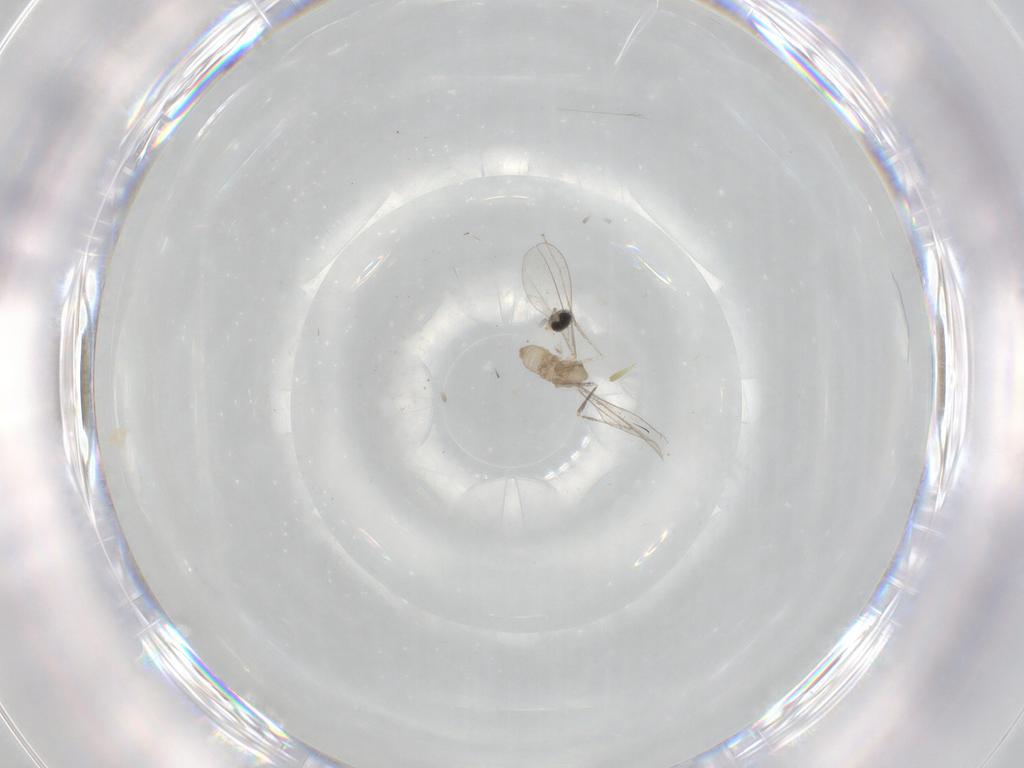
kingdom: Animalia
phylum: Arthropoda
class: Insecta
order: Diptera
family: Cecidomyiidae
